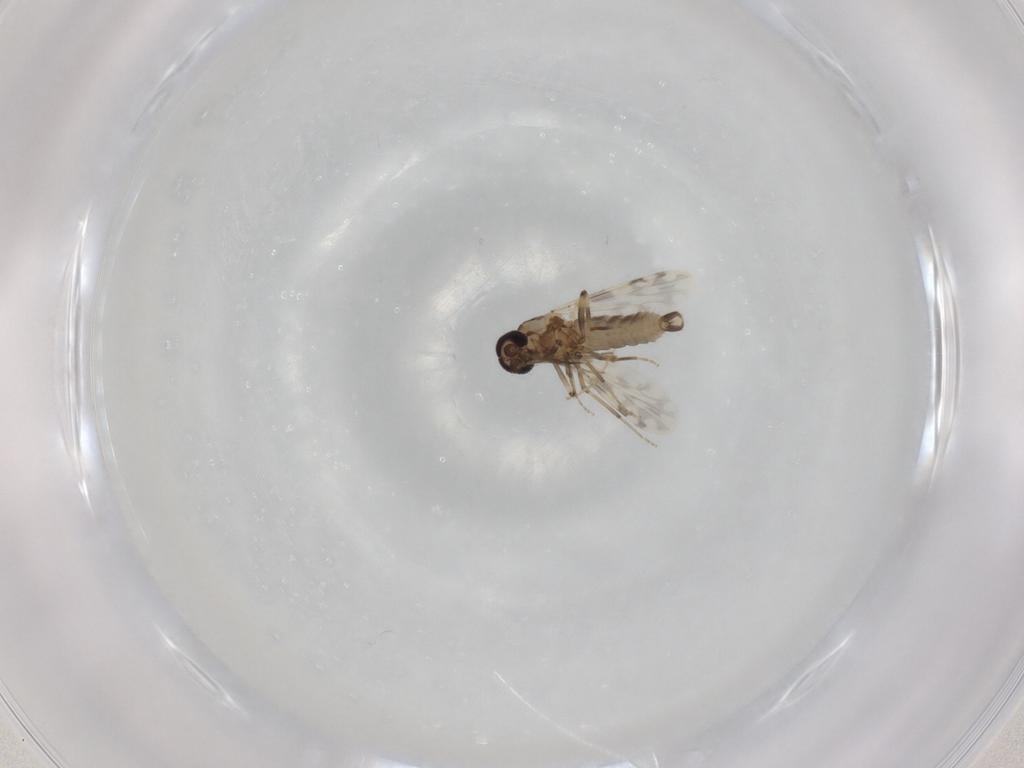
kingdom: Animalia
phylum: Arthropoda
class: Insecta
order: Diptera
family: Ceratopogonidae
